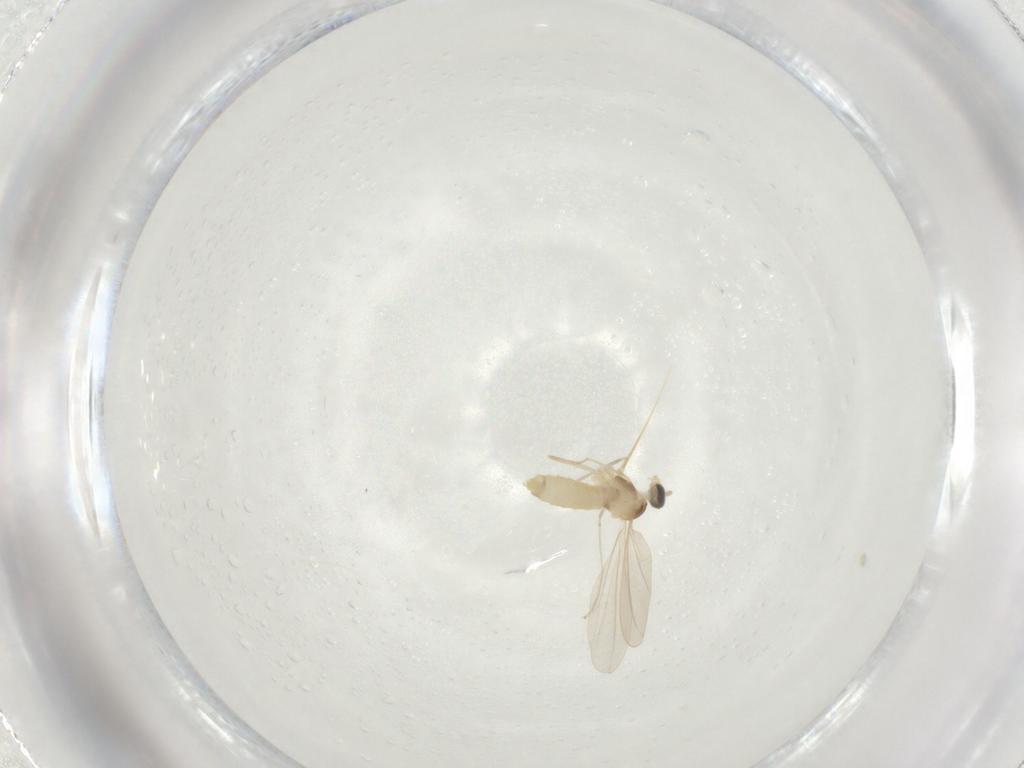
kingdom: Animalia
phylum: Arthropoda
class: Insecta
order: Diptera
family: Cecidomyiidae
